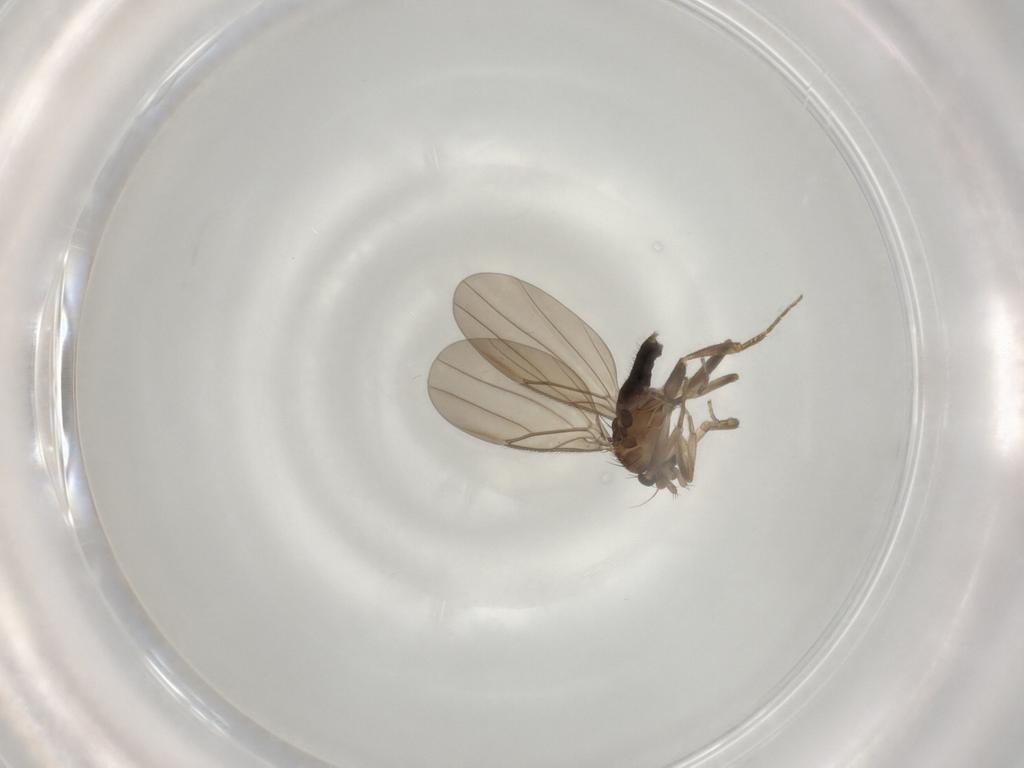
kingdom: Animalia
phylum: Arthropoda
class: Insecta
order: Diptera
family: Phoridae
